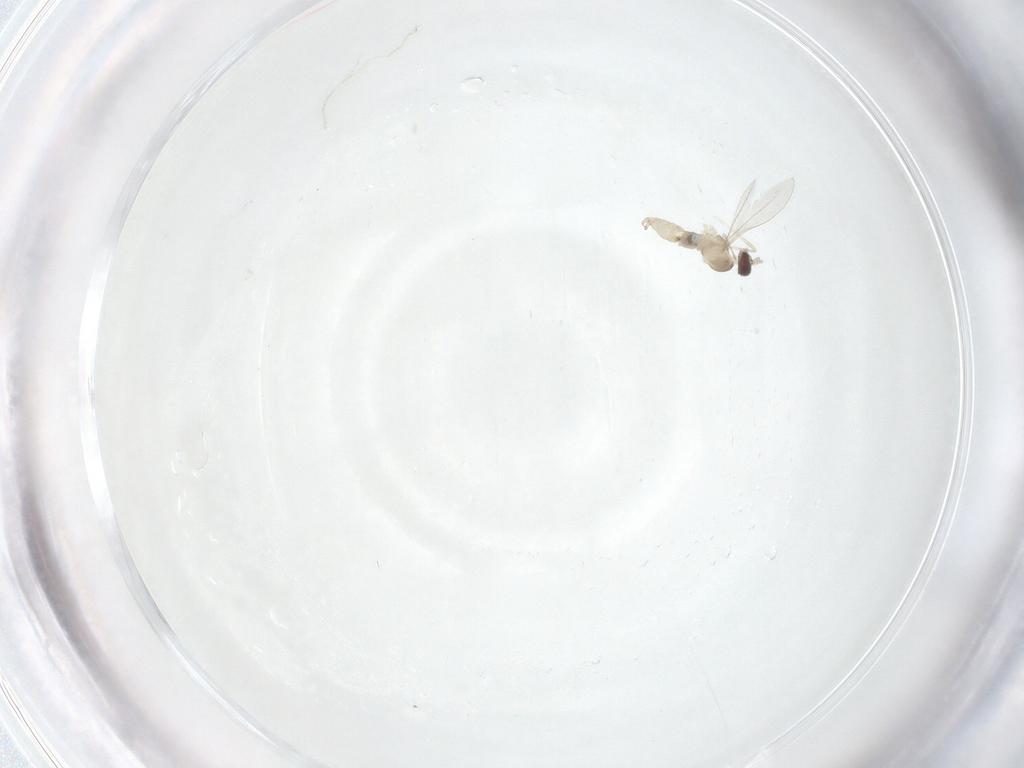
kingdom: Animalia
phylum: Arthropoda
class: Insecta
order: Diptera
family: Cecidomyiidae
